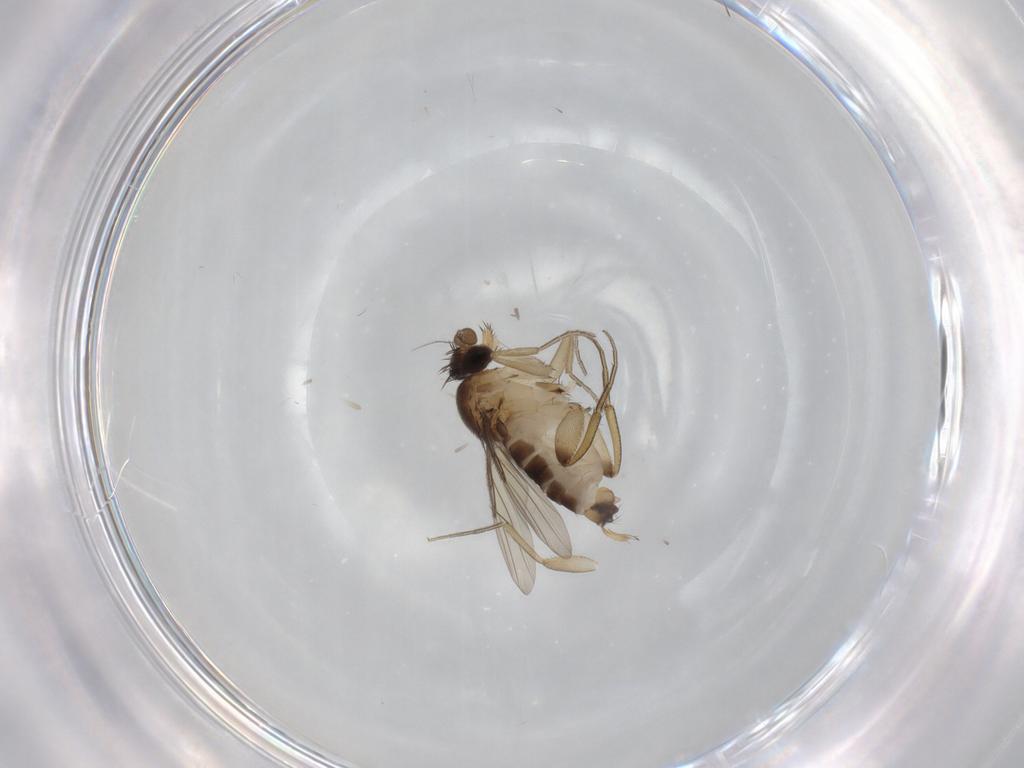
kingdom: Animalia
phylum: Arthropoda
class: Insecta
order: Diptera
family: Phoridae
